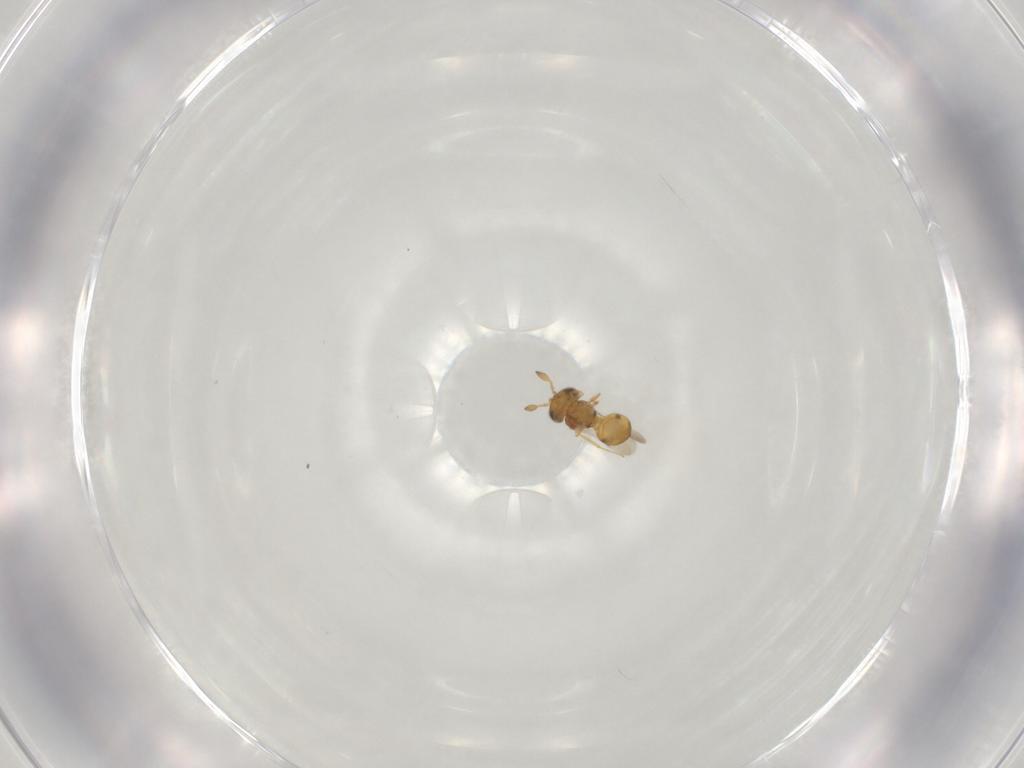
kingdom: Animalia
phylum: Arthropoda
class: Insecta
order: Hymenoptera
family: Scelionidae
